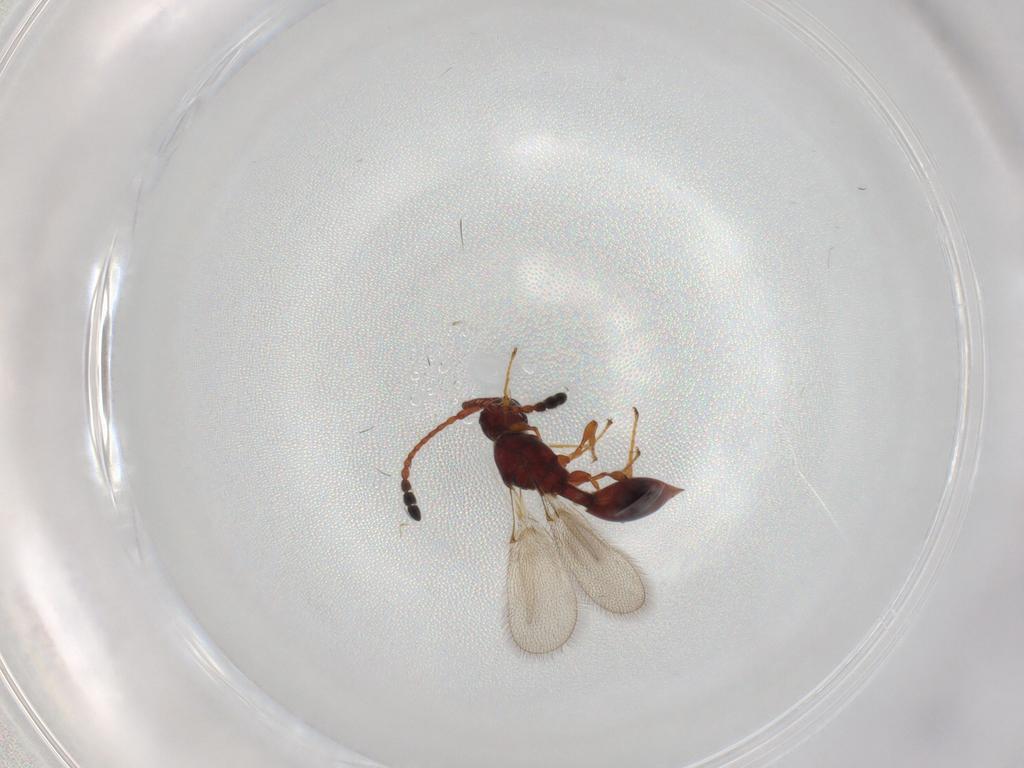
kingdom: Animalia
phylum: Arthropoda
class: Insecta
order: Hymenoptera
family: Diapriidae
